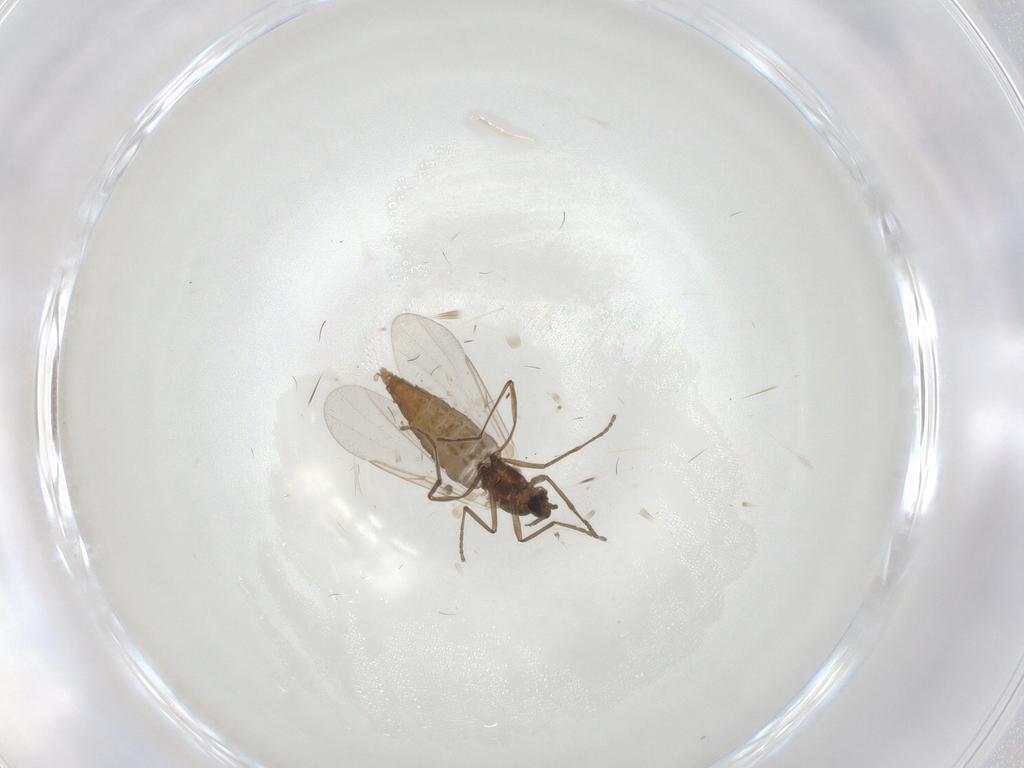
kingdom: Animalia
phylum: Arthropoda
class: Insecta
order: Diptera
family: Cecidomyiidae
